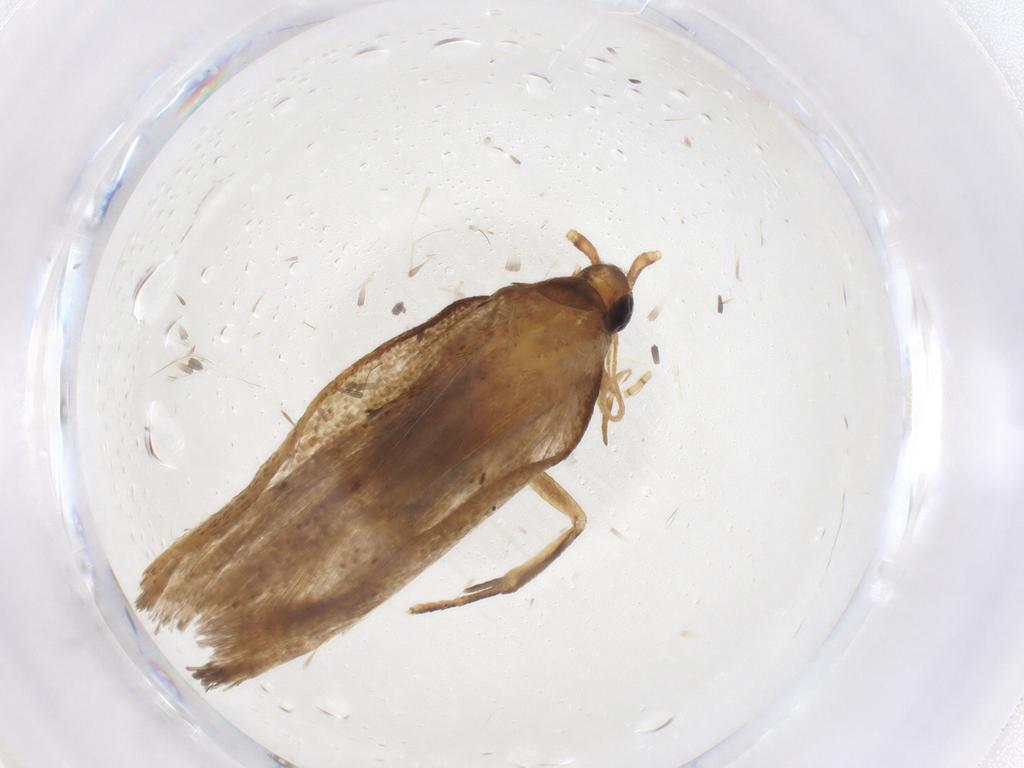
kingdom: Animalia
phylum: Arthropoda
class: Insecta
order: Lepidoptera
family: Lecithoceridae
